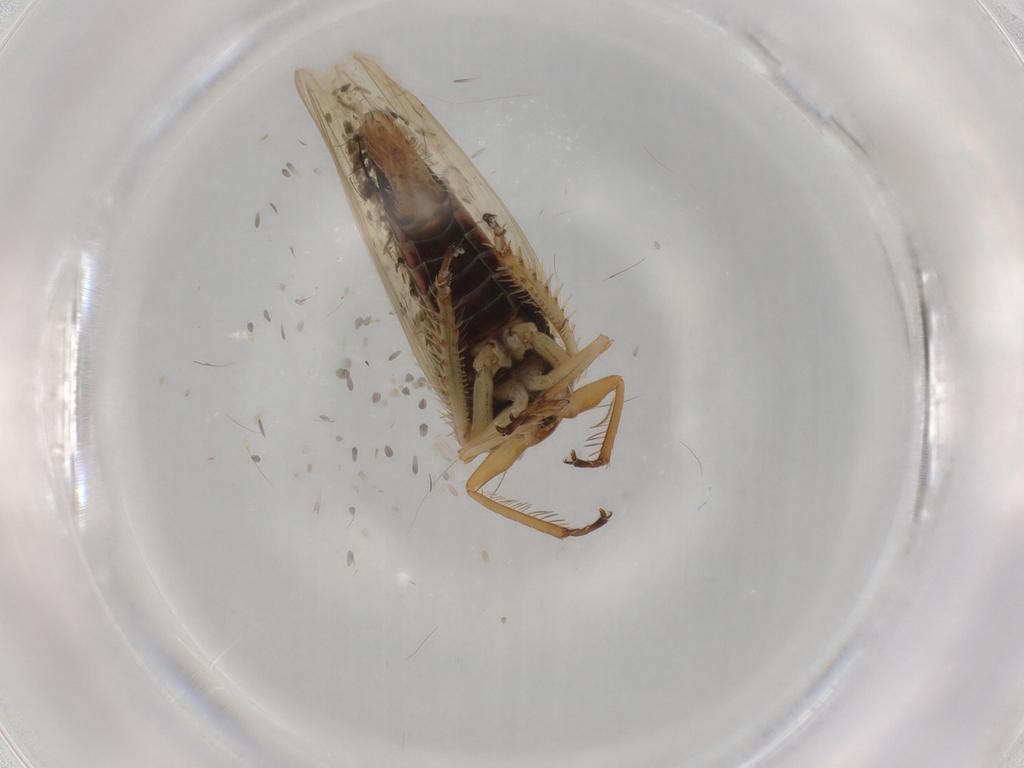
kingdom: Animalia
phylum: Arthropoda
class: Insecta
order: Hemiptera
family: Cicadellidae
